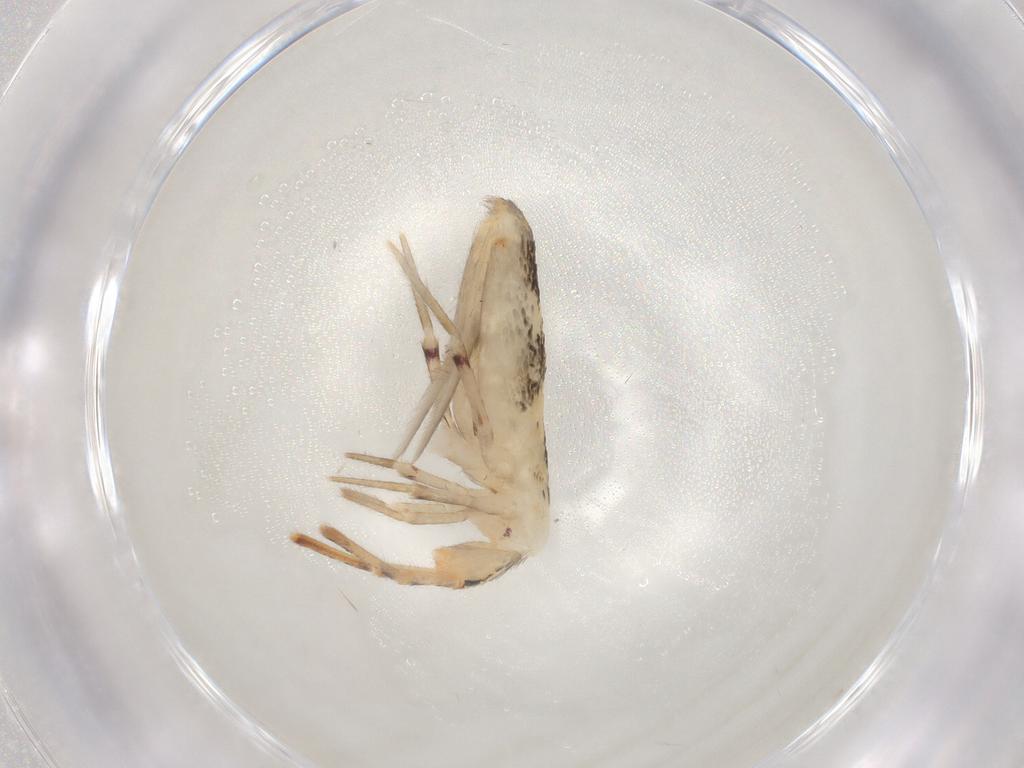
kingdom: Animalia
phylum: Arthropoda
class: Collembola
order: Entomobryomorpha
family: Entomobryidae
